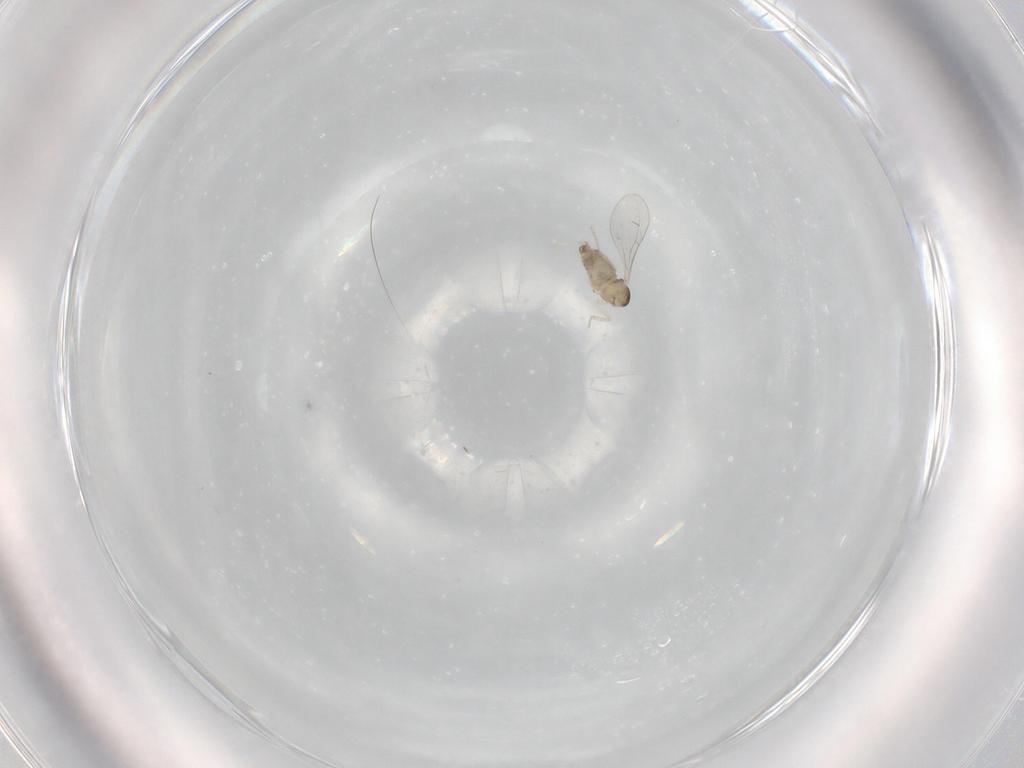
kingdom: Animalia
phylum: Arthropoda
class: Insecta
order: Diptera
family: Cecidomyiidae
